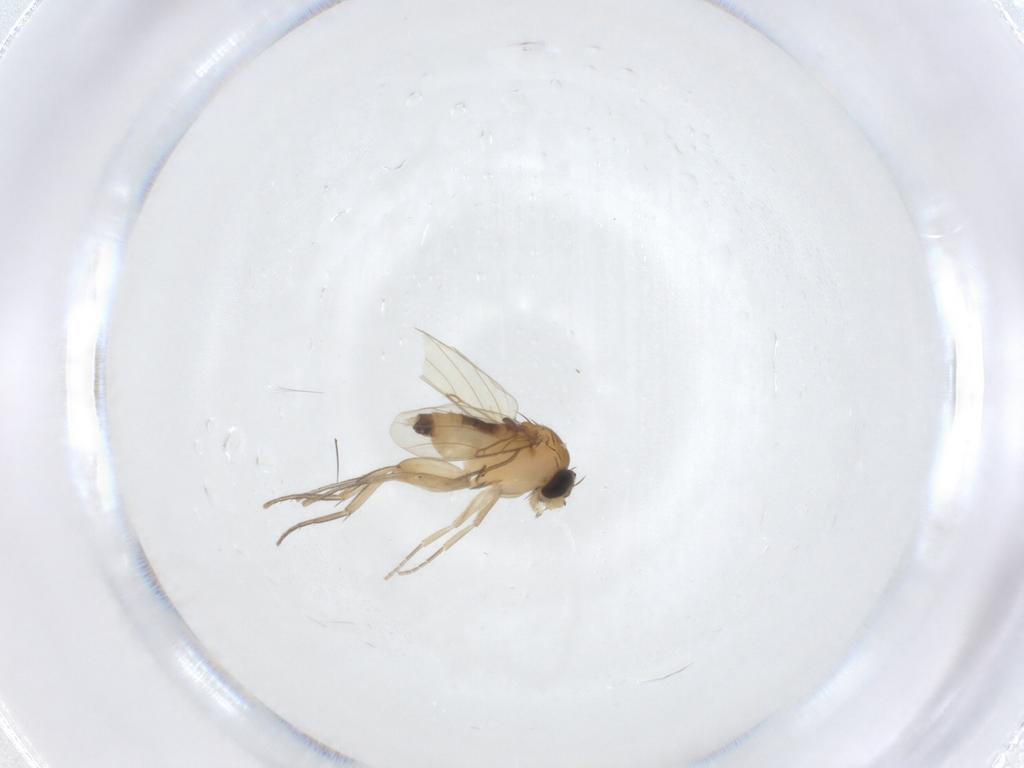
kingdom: Animalia
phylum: Arthropoda
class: Insecta
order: Diptera
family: Phoridae
